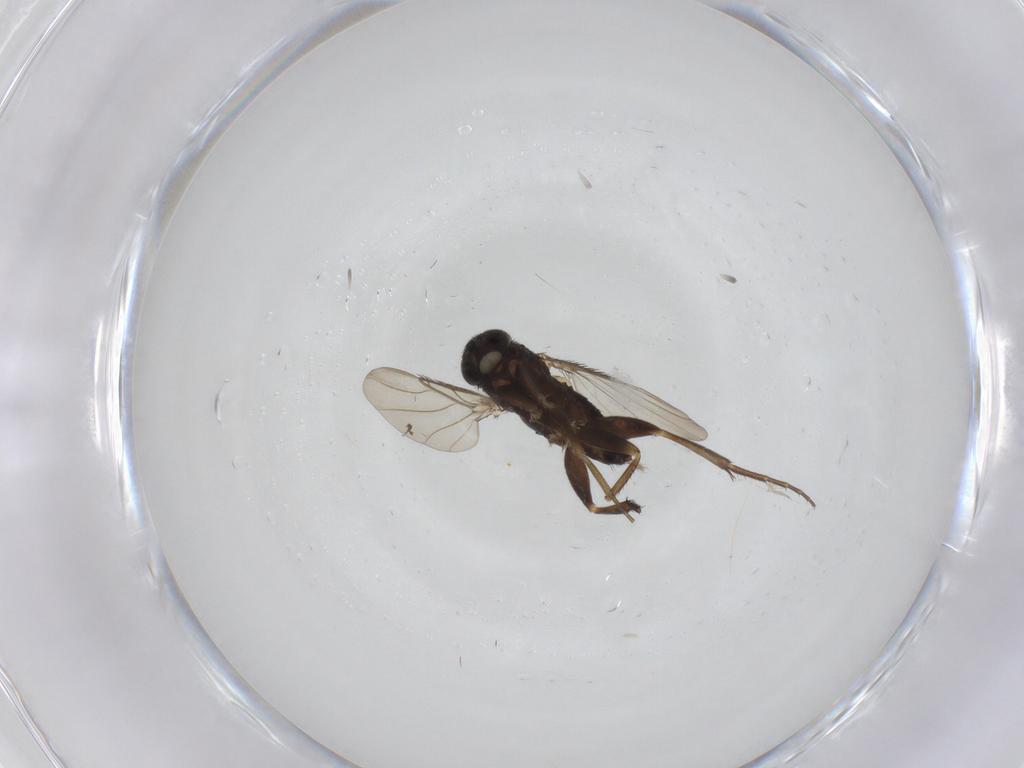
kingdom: Animalia
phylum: Arthropoda
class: Insecta
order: Diptera
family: Phoridae
